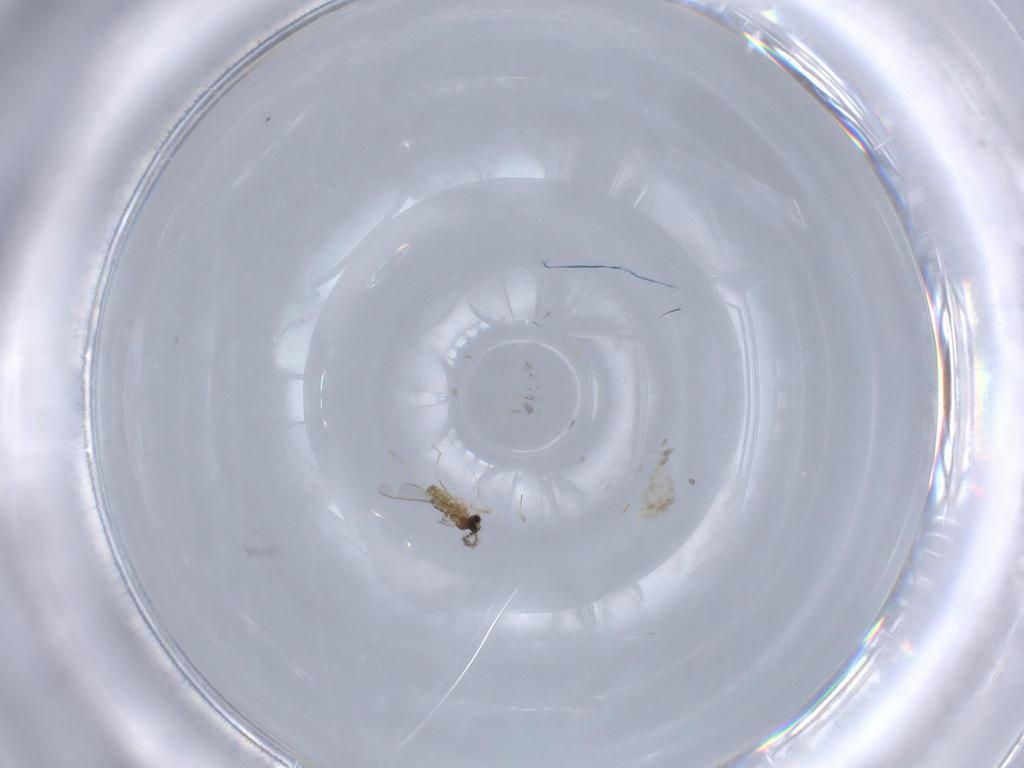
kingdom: Animalia
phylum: Arthropoda
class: Insecta
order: Diptera
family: Cecidomyiidae
